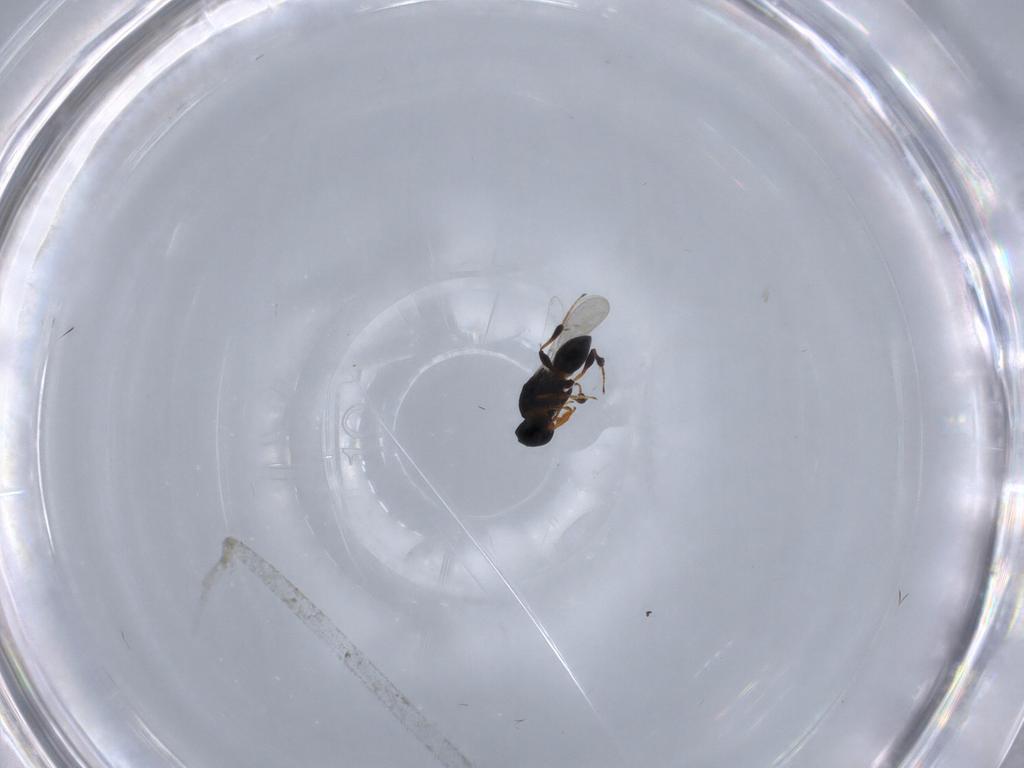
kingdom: Animalia
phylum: Arthropoda
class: Insecta
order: Hymenoptera
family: Platygastridae
